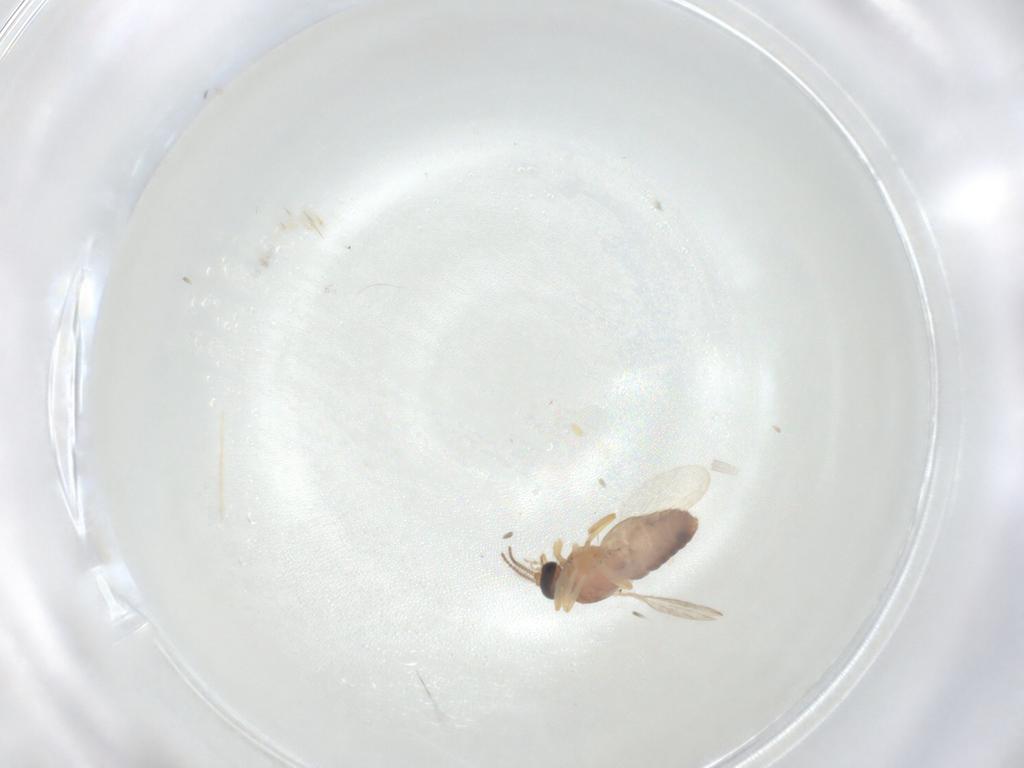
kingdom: Animalia
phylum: Arthropoda
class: Insecta
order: Diptera
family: Ceratopogonidae
